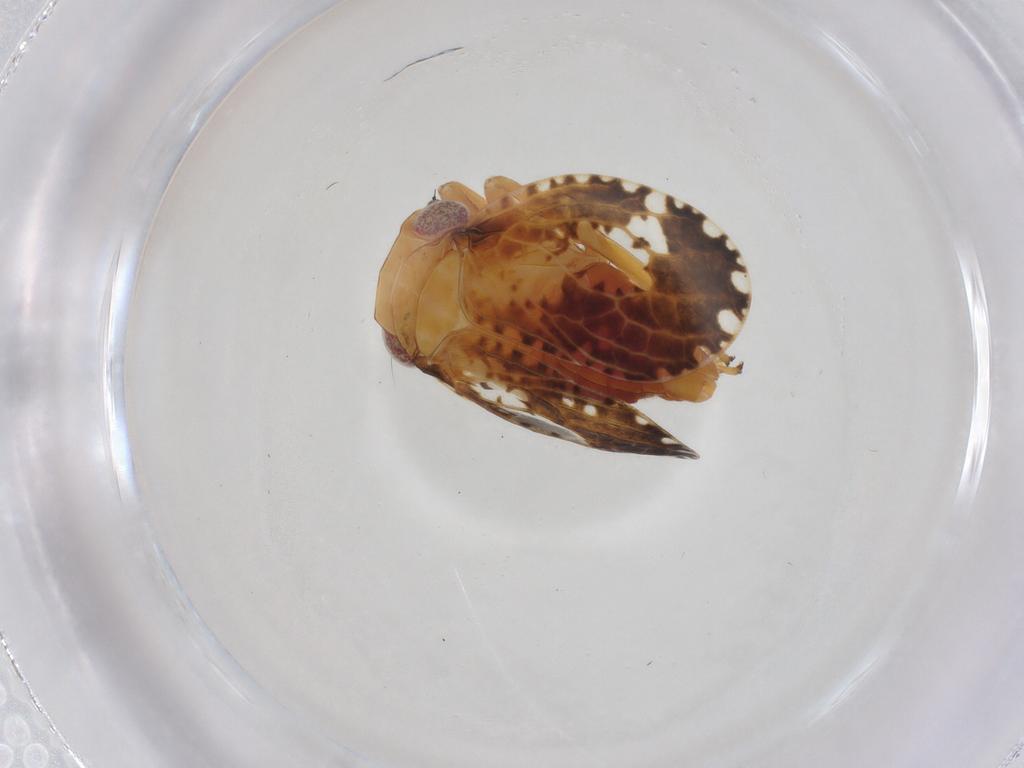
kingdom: Animalia
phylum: Arthropoda
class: Insecta
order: Hemiptera
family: Tropiduchidae
